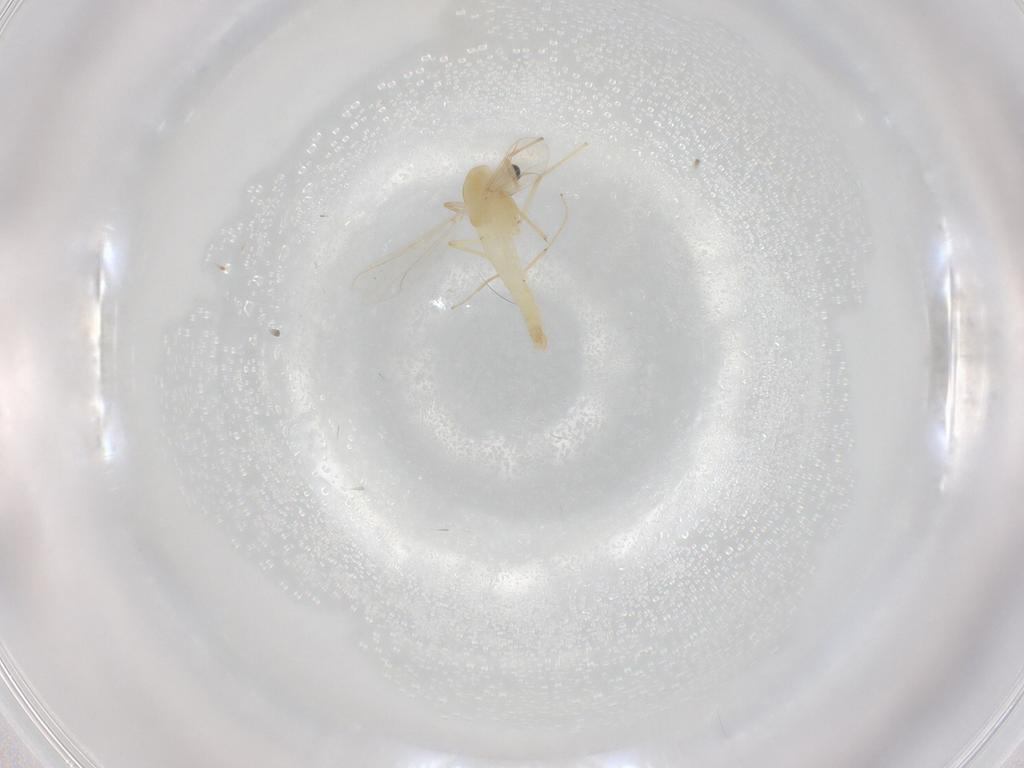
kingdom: Animalia
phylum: Arthropoda
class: Insecta
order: Diptera
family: Chironomidae
